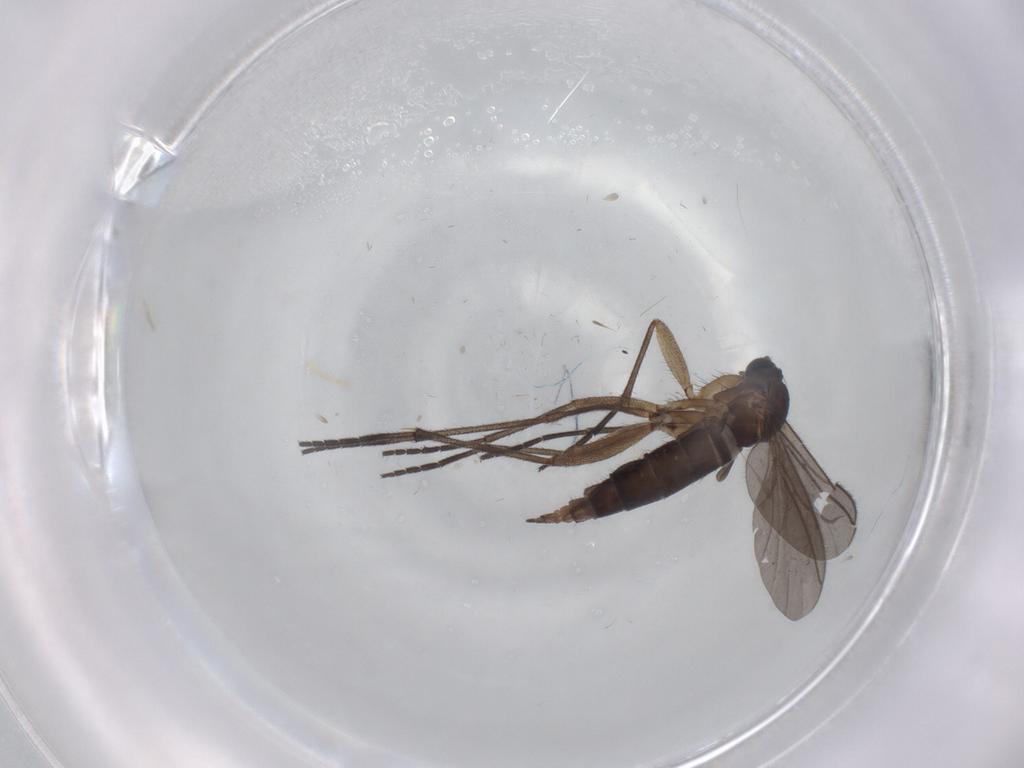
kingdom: Animalia
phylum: Arthropoda
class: Insecta
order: Diptera
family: Sciaridae
